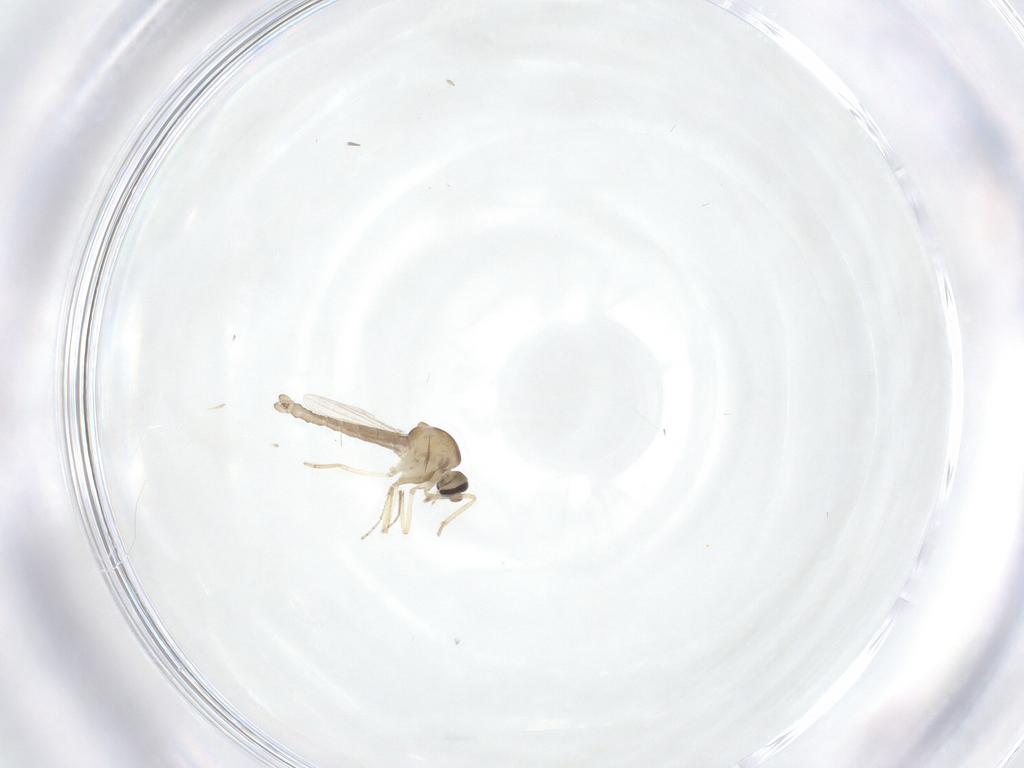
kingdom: Animalia
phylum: Arthropoda
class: Insecta
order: Diptera
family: Ceratopogonidae
